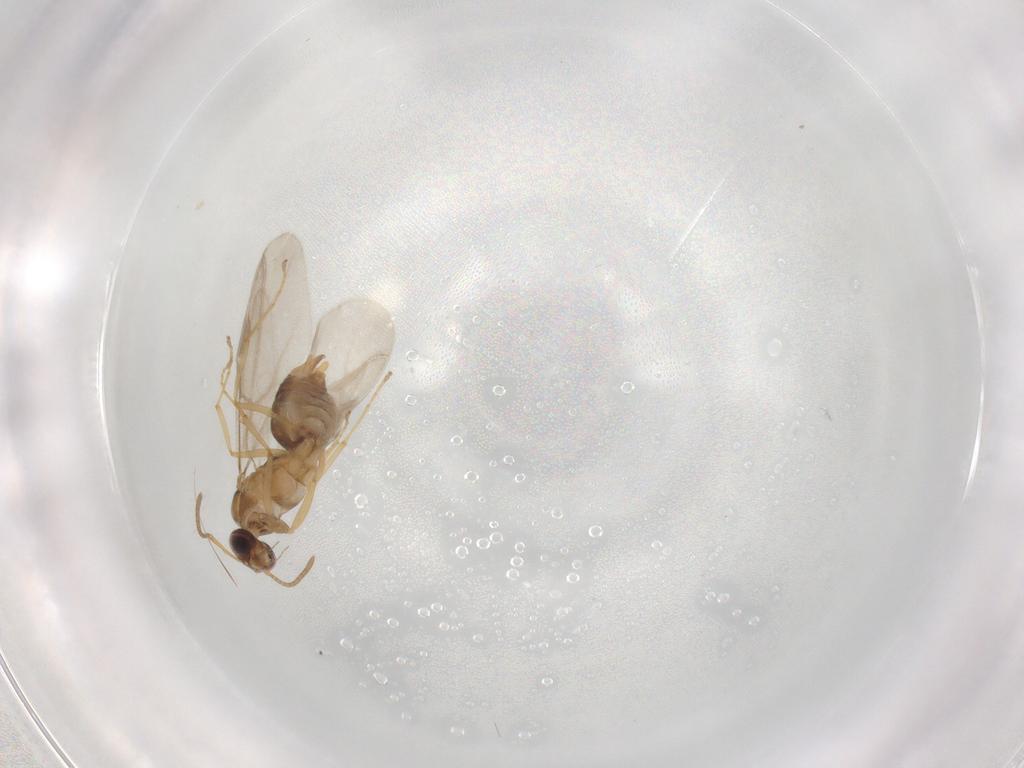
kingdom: Animalia
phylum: Arthropoda
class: Insecta
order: Hymenoptera
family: Formicidae
